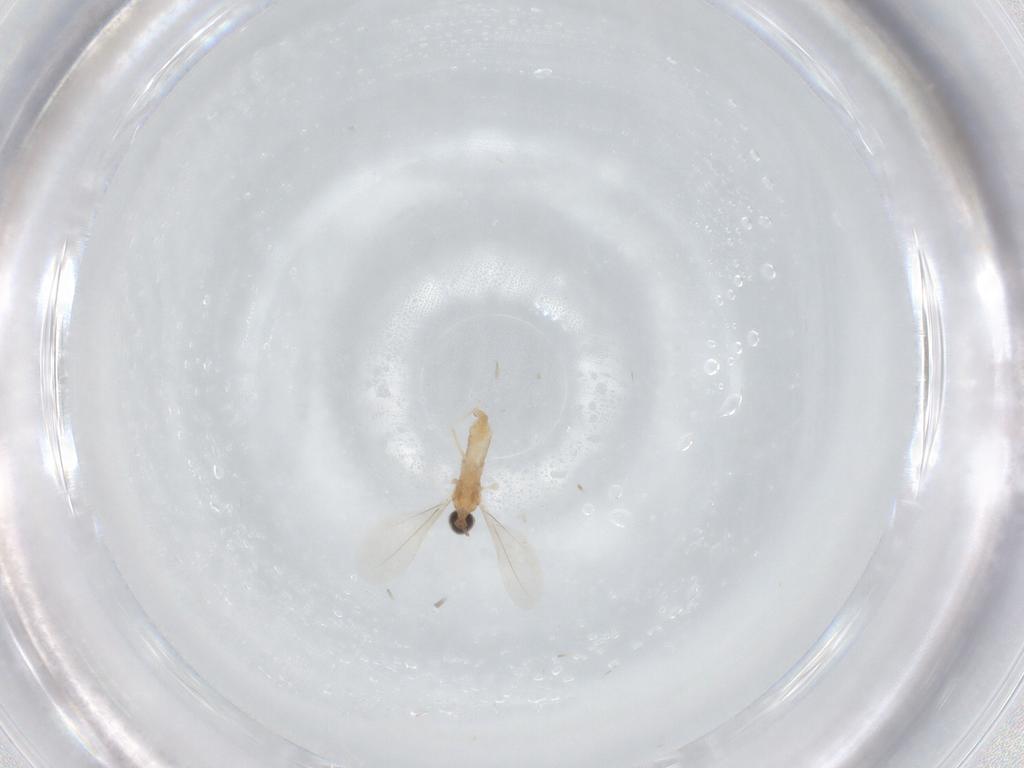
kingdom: Animalia
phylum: Arthropoda
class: Insecta
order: Diptera
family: Cecidomyiidae
